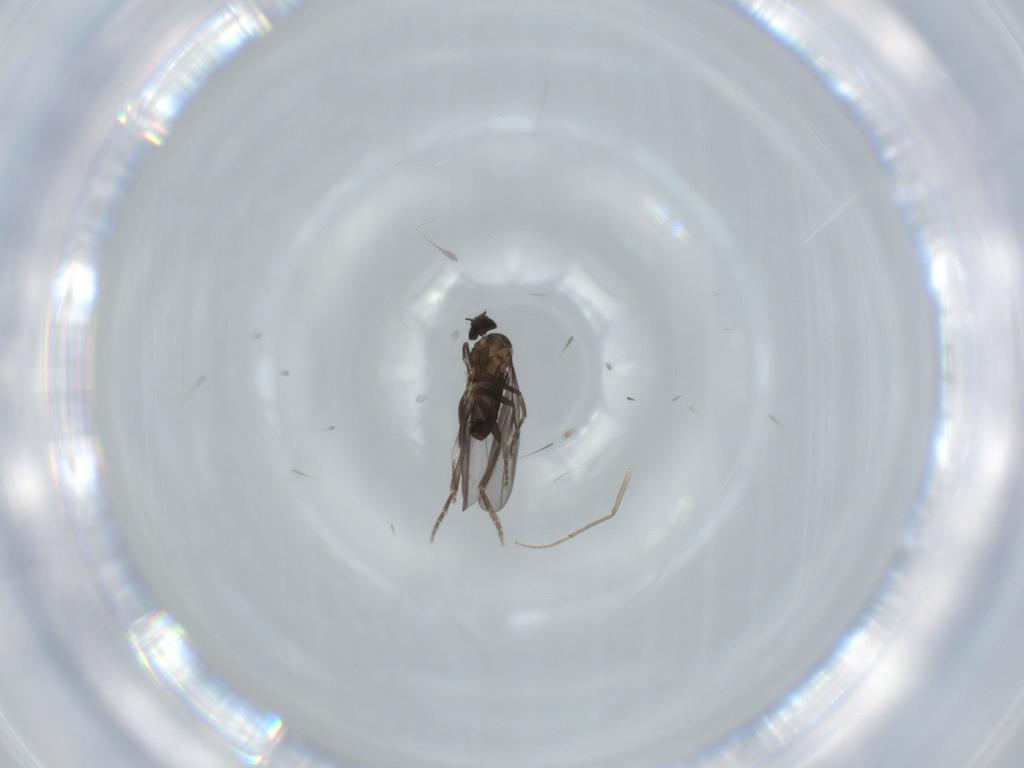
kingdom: Animalia
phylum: Arthropoda
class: Insecta
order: Diptera
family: Phoridae
